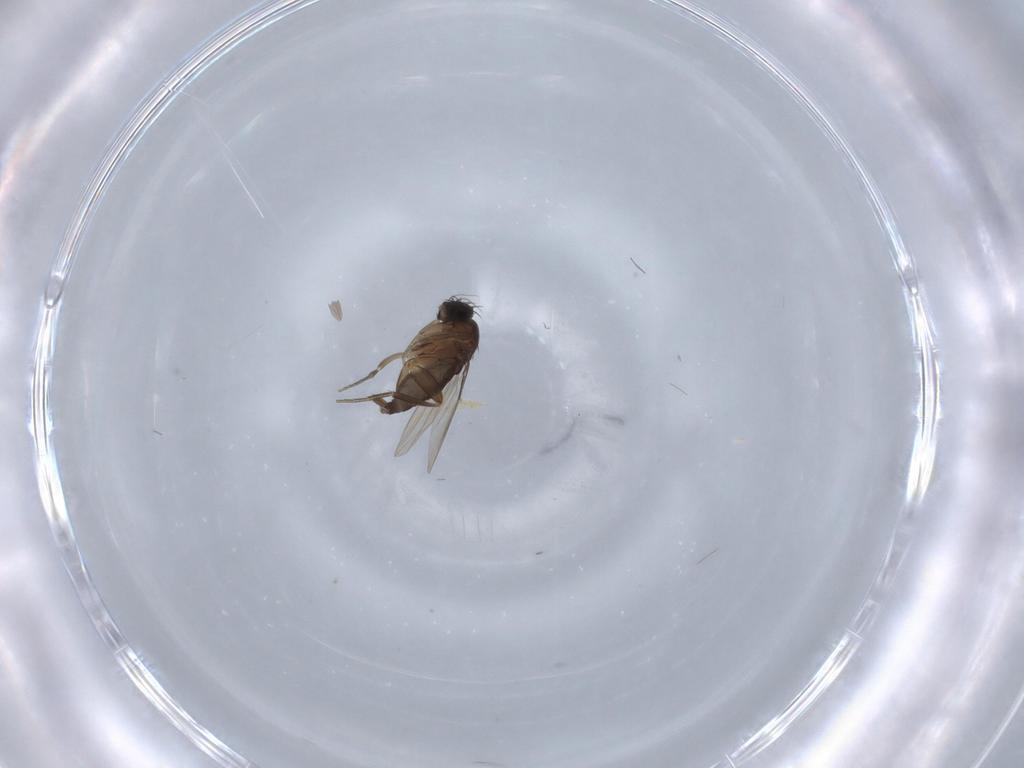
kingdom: Animalia
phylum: Arthropoda
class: Insecta
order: Diptera
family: Phoridae
